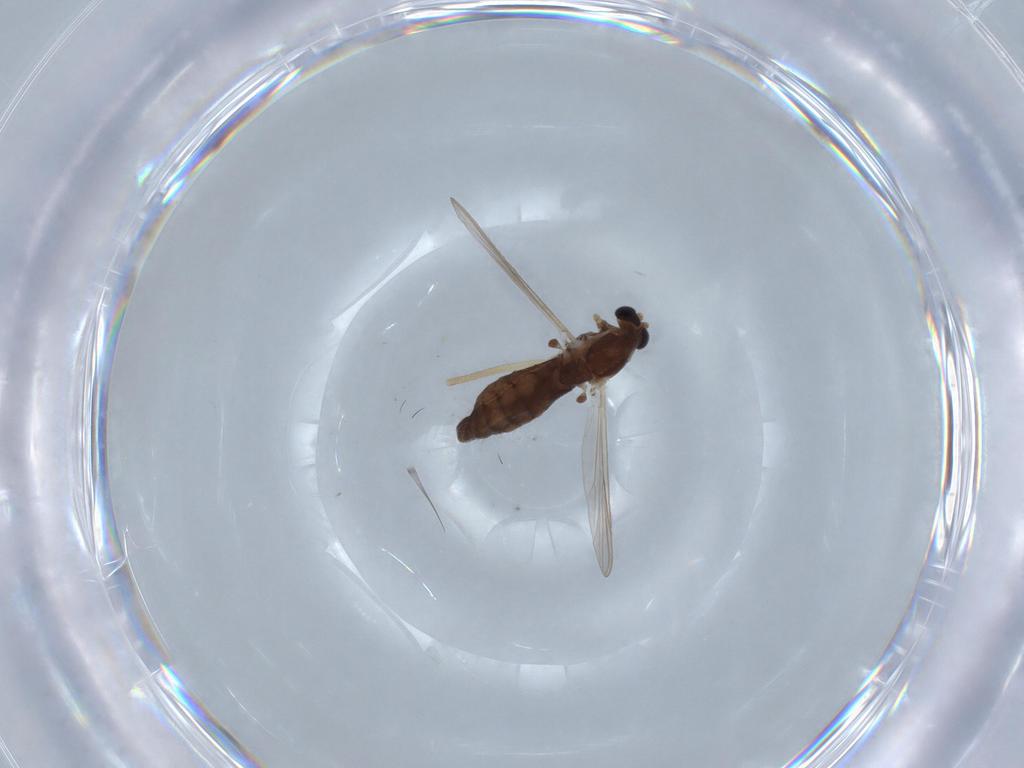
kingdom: Animalia
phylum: Arthropoda
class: Insecta
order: Diptera
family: Chironomidae
